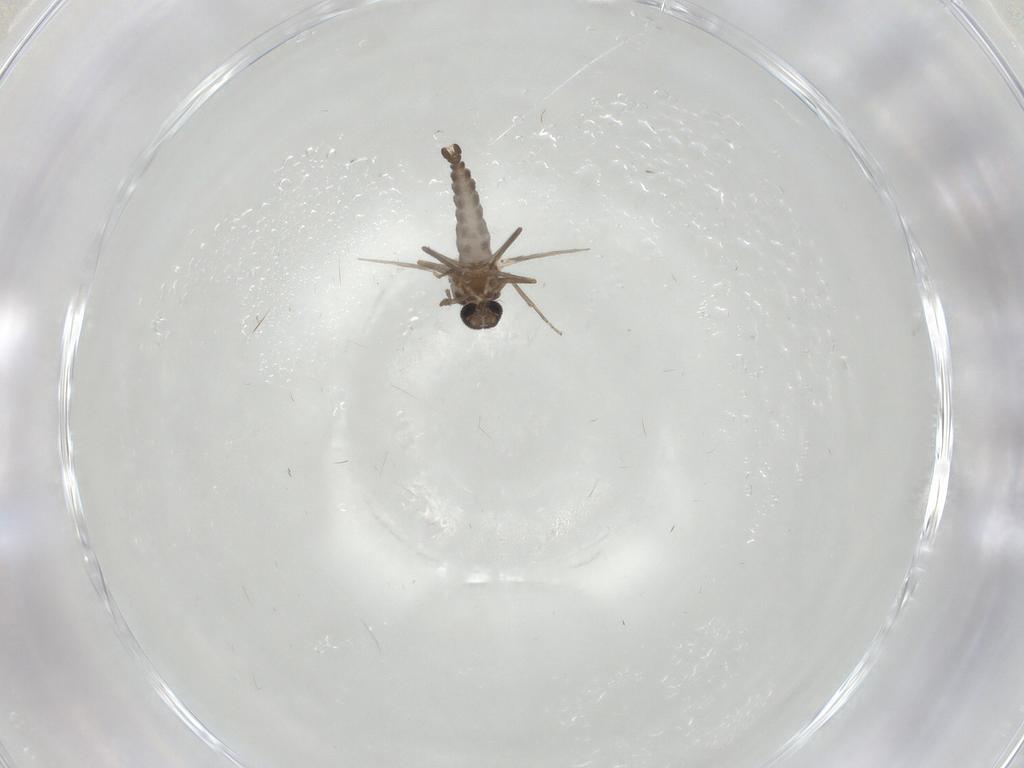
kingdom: Animalia
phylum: Arthropoda
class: Insecta
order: Diptera
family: Ceratopogonidae
